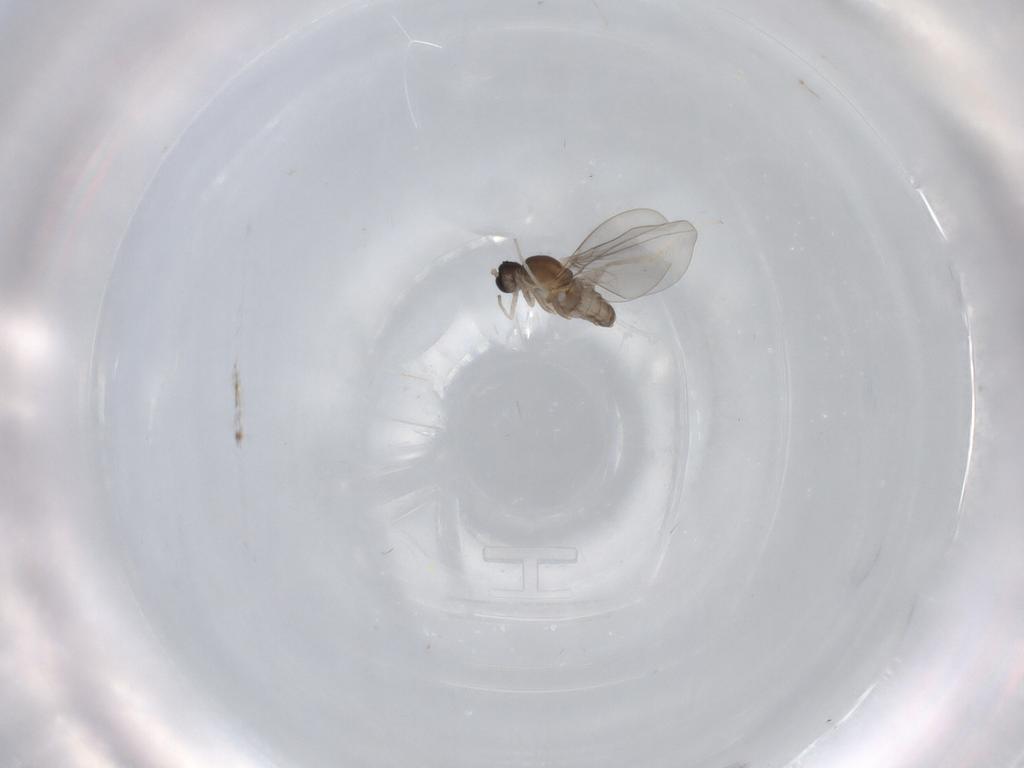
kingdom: Animalia
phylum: Arthropoda
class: Insecta
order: Diptera
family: Cecidomyiidae
